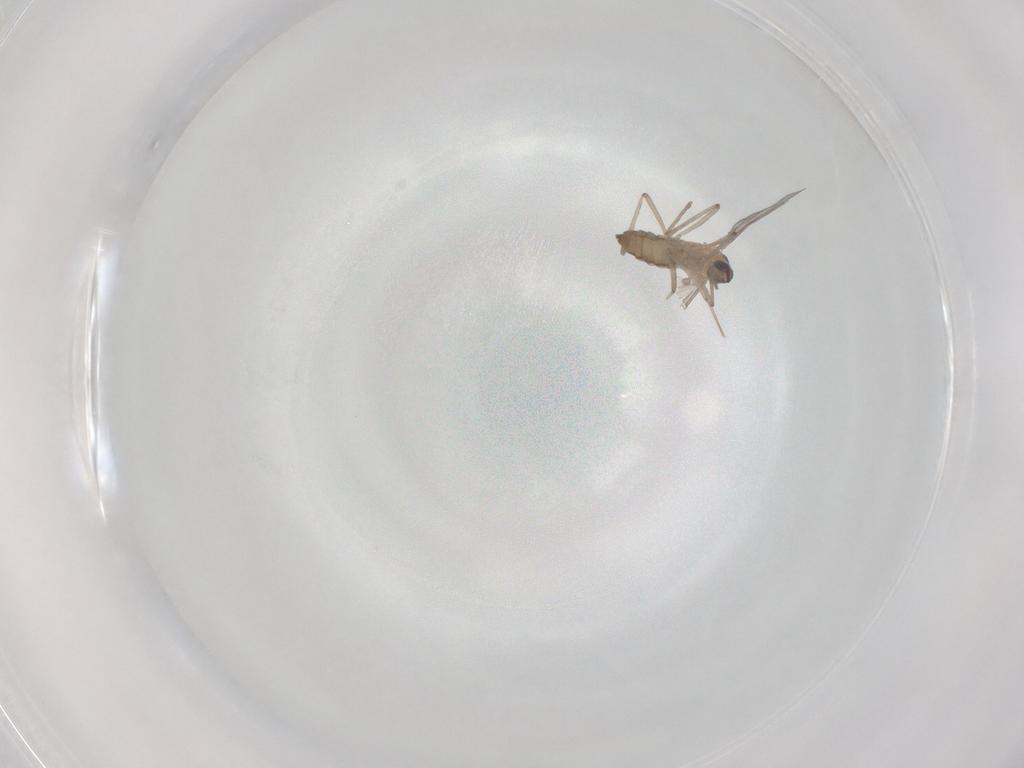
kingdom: Animalia
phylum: Arthropoda
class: Insecta
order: Diptera
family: Cecidomyiidae
